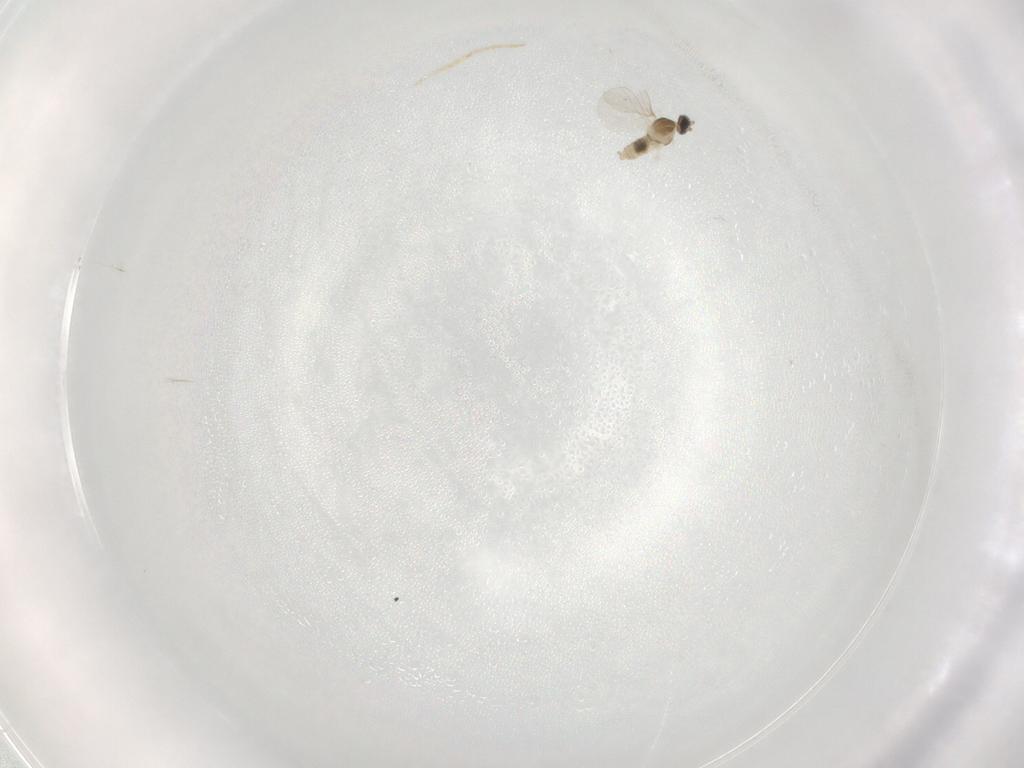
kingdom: Animalia
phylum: Arthropoda
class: Insecta
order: Diptera
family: Cecidomyiidae
